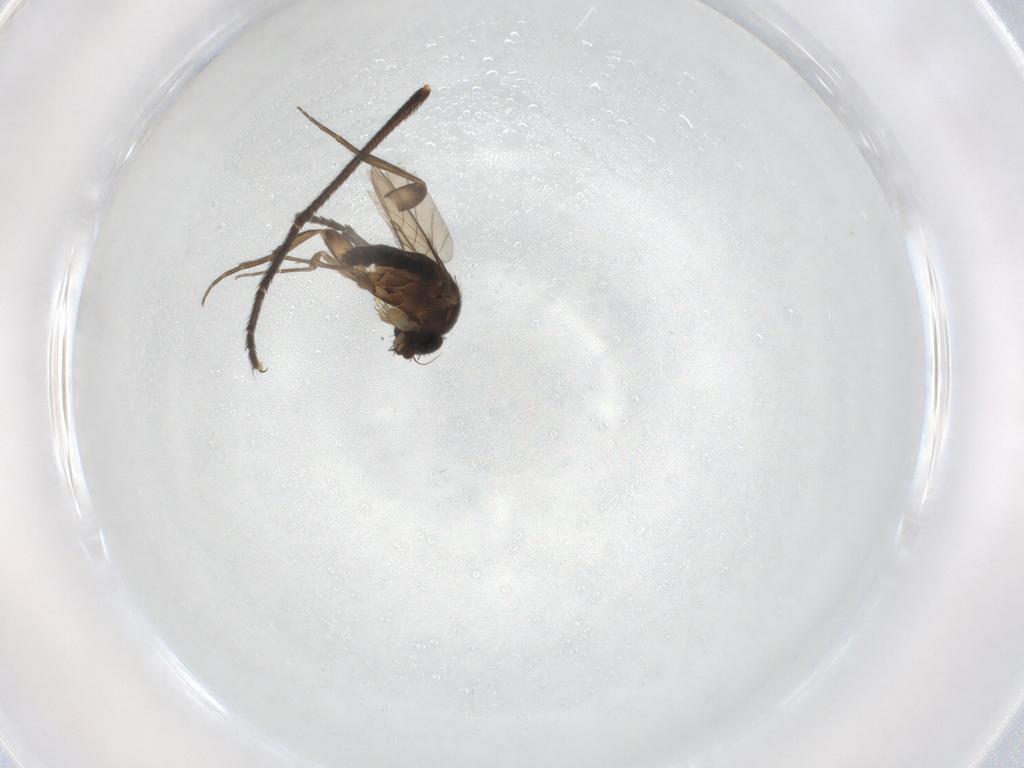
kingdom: Animalia
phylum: Arthropoda
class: Insecta
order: Diptera
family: Phoridae
